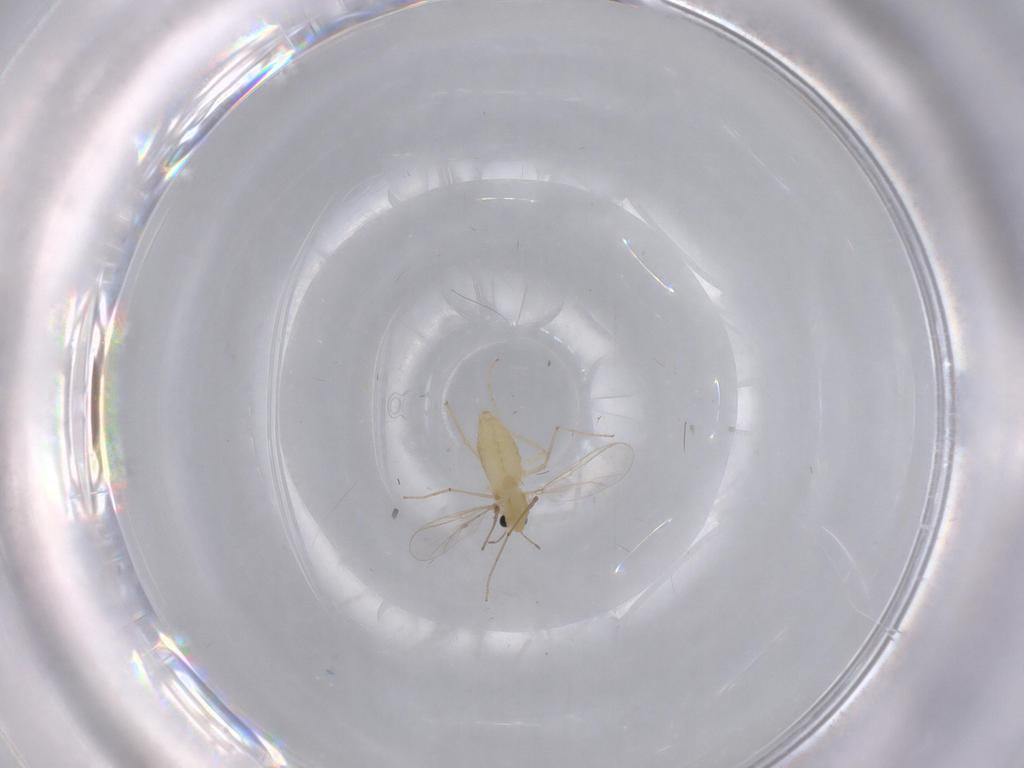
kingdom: Animalia
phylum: Arthropoda
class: Insecta
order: Diptera
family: Chironomidae
